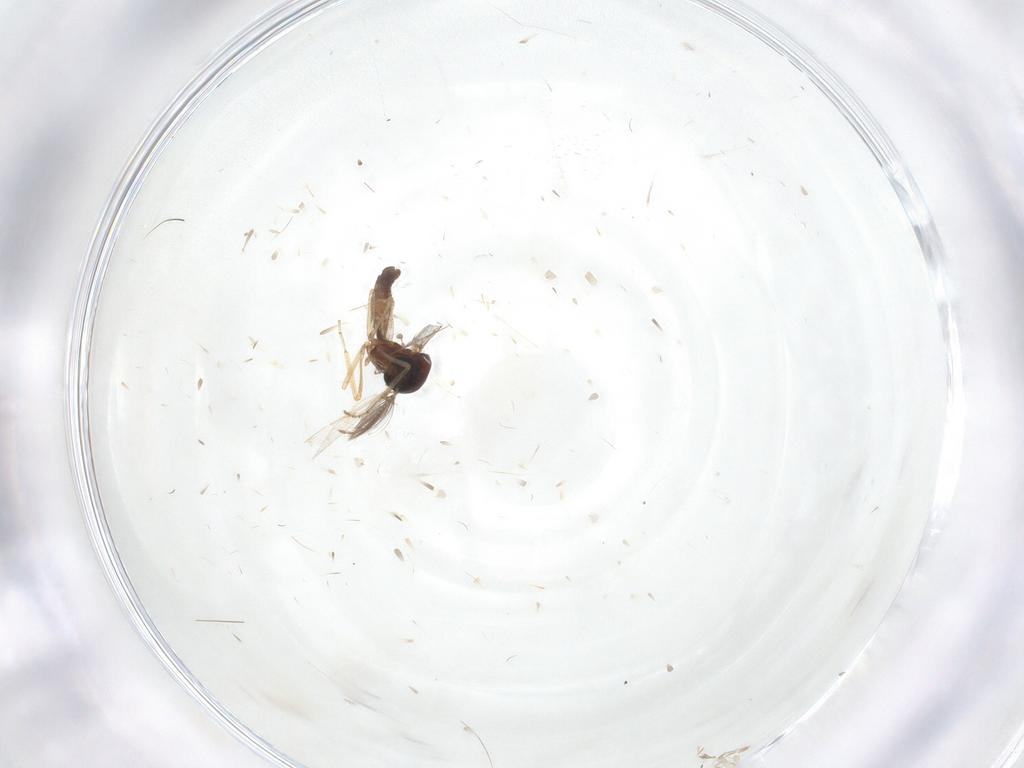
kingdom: Animalia
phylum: Arthropoda
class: Insecta
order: Diptera
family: Ceratopogonidae
